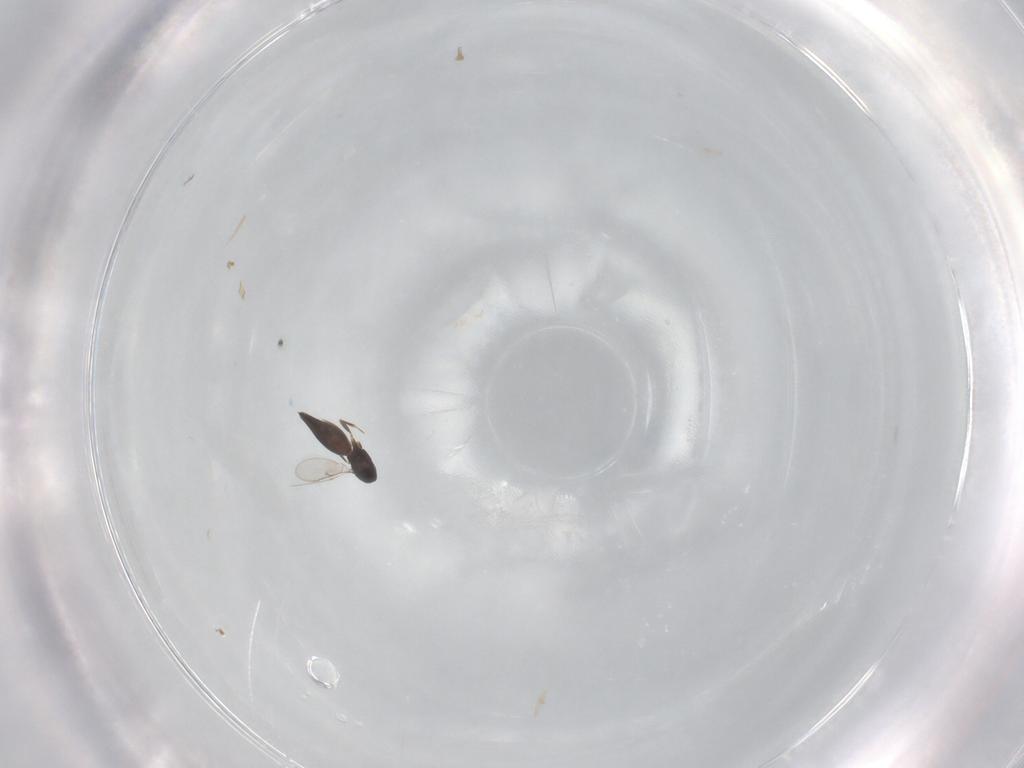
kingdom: Animalia
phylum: Arthropoda
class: Insecta
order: Hymenoptera
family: Scelionidae
